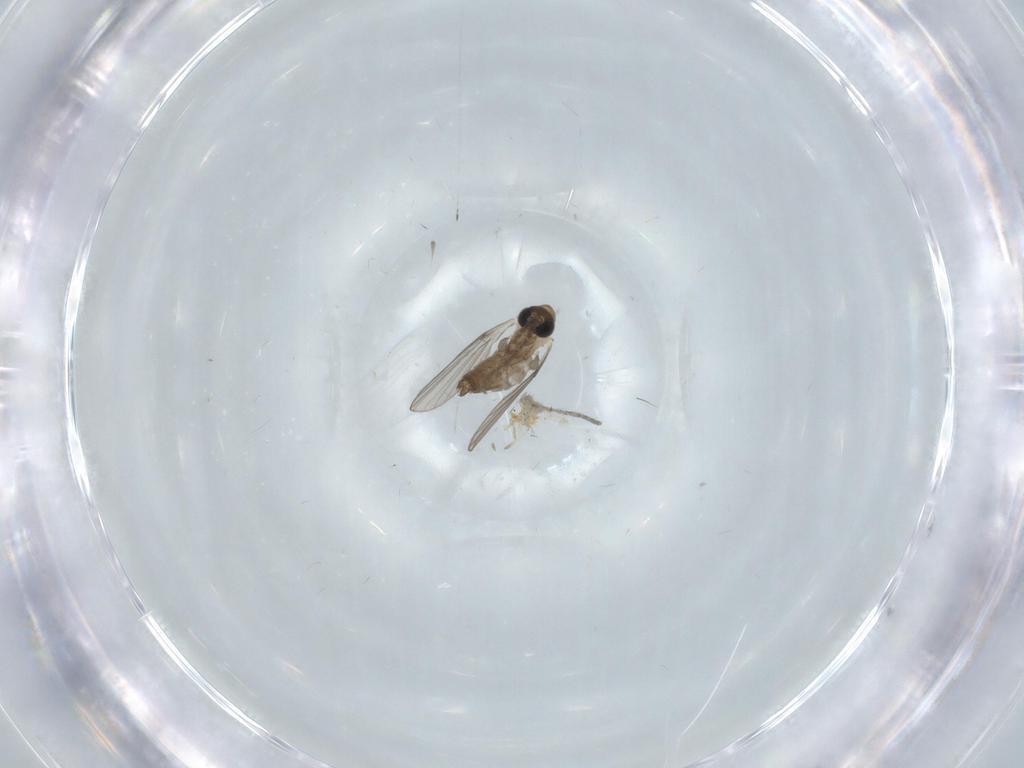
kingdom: Animalia
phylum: Arthropoda
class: Insecta
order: Diptera
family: Psychodidae
